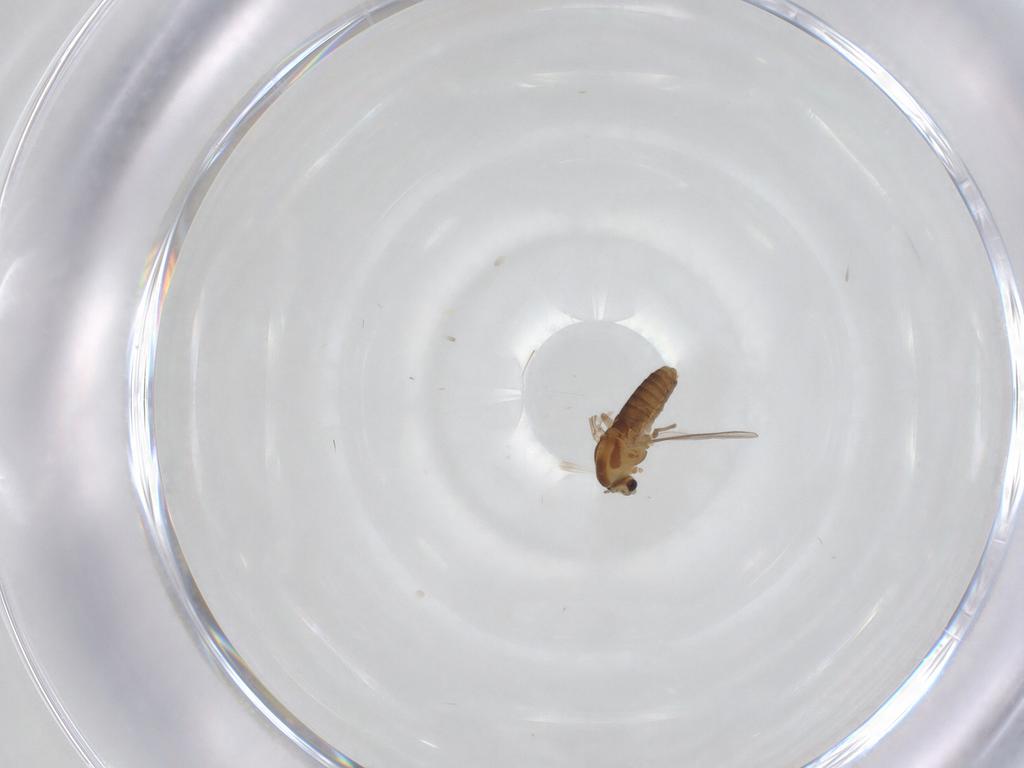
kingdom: Animalia
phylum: Arthropoda
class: Insecta
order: Diptera
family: Chironomidae
